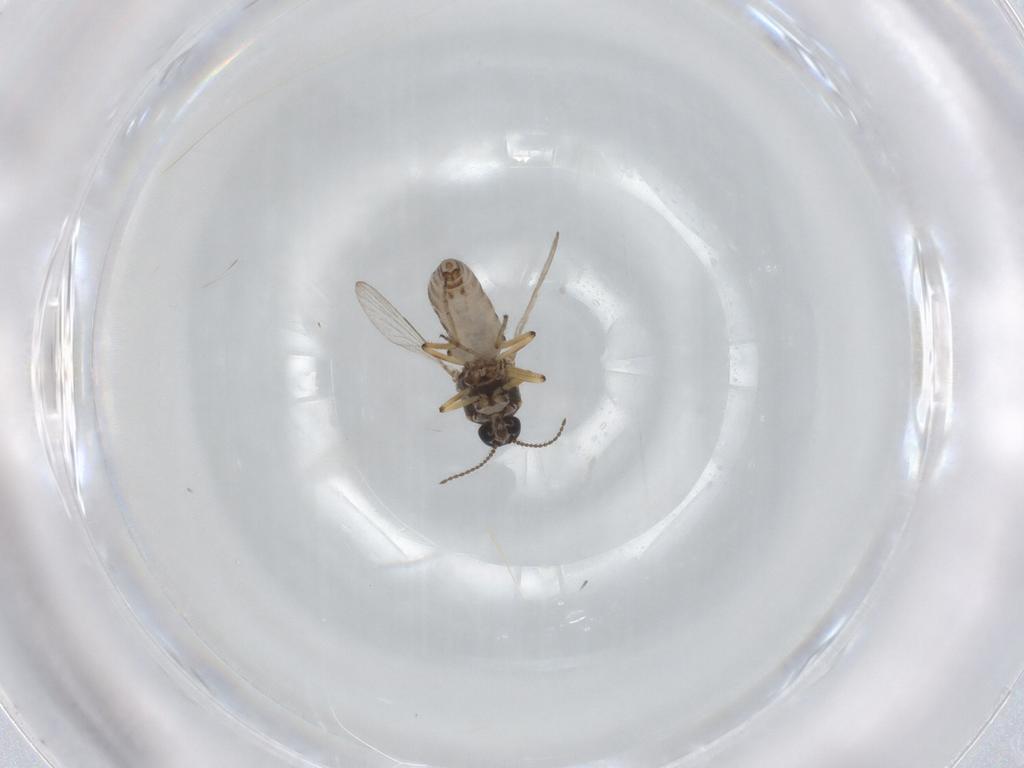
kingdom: Animalia
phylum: Arthropoda
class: Insecta
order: Diptera
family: Ceratopogonidae
